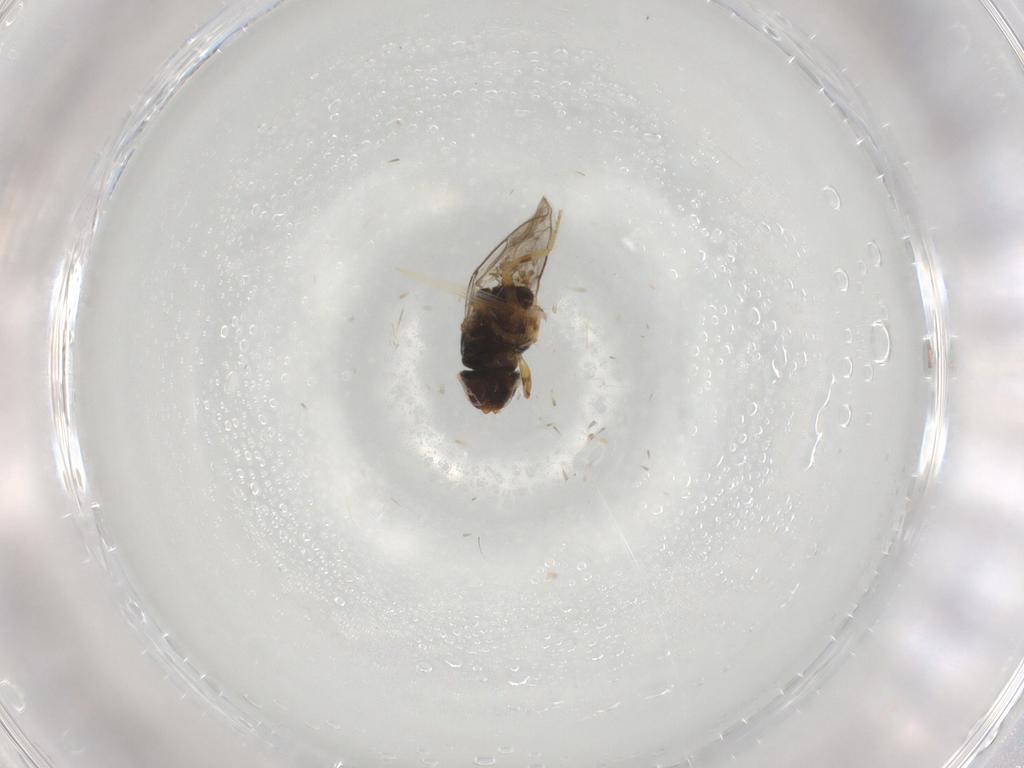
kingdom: Animalia
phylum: Arthropoda
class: Insecta
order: Diptera
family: Chloropidae
